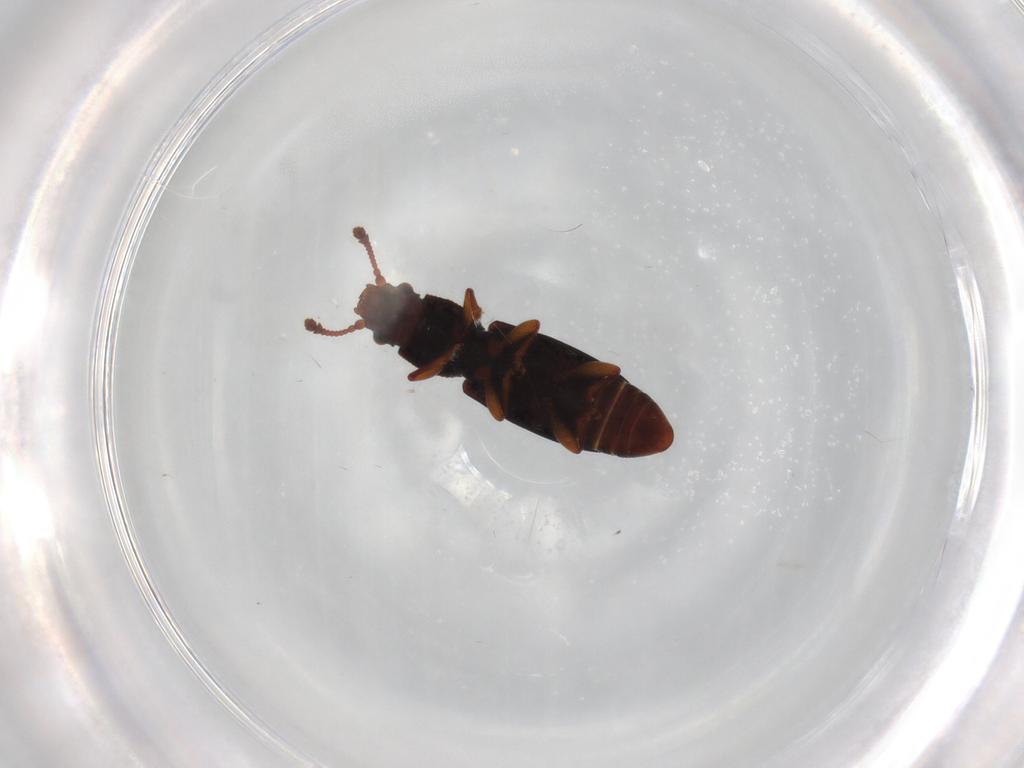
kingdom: Animalia
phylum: Arthropoda
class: Insecta
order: Coleoptera
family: Monotomidae
